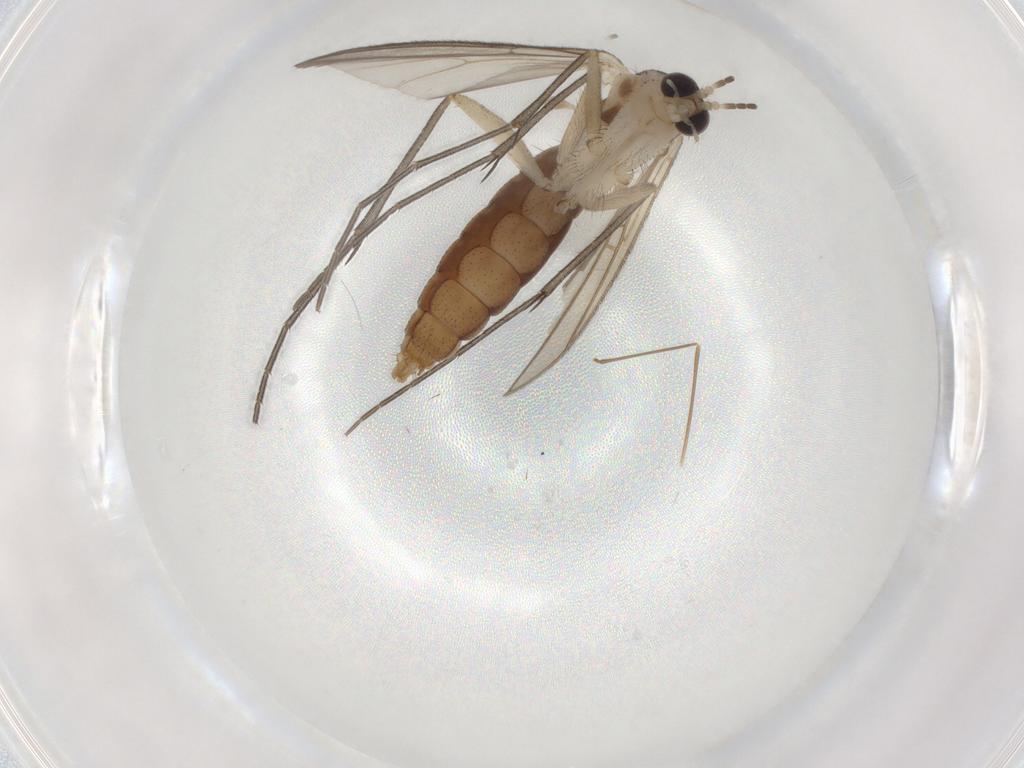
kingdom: Animalia
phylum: Arthropoda
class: Insecta
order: Diptera
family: Mycetophilidae
